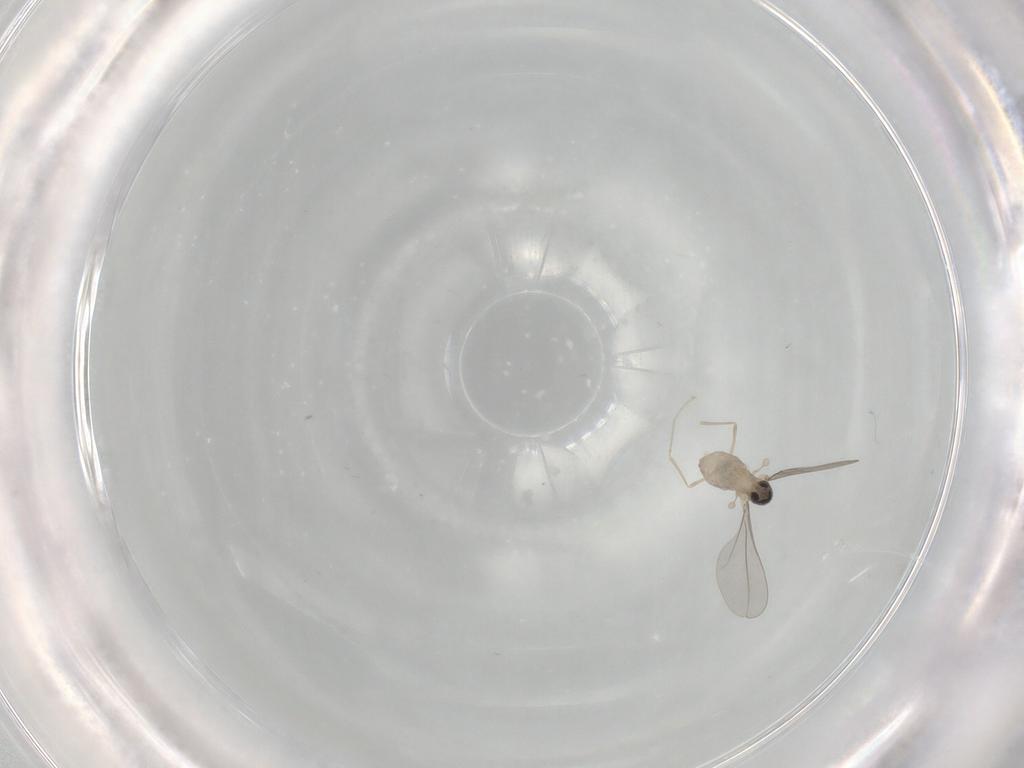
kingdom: Animalia
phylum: Arthropoda
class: Insecta
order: Diptera
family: Cecidomyiidae
